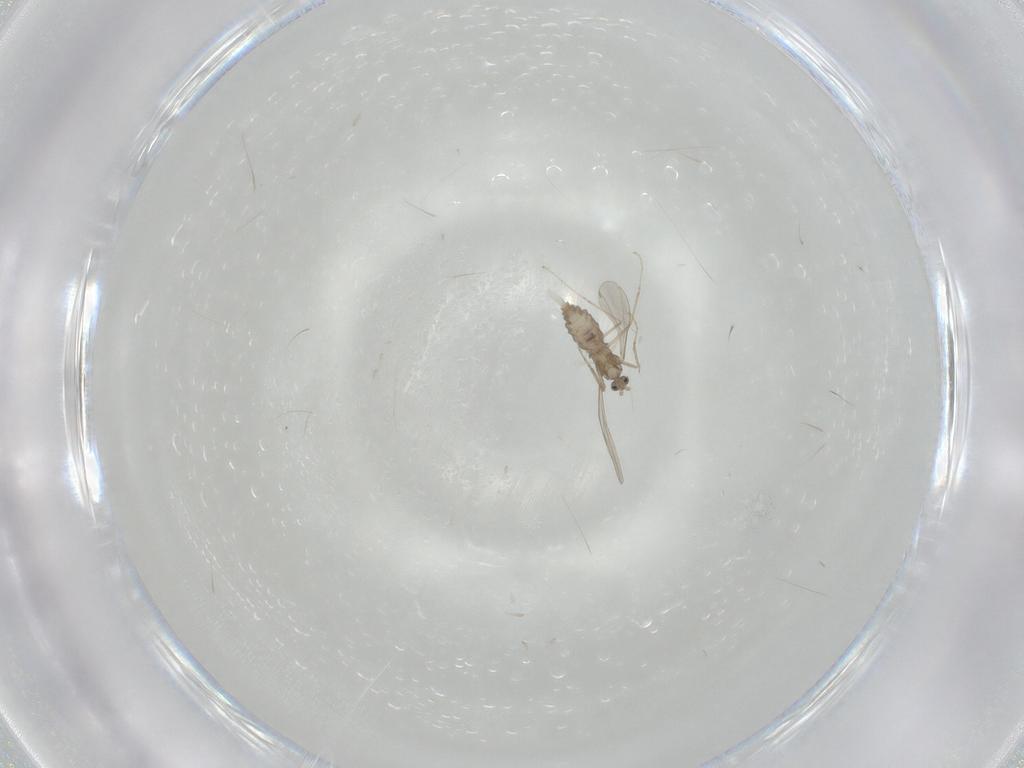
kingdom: Animalia
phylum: Arthropoda
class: Insecta
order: Diptera
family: Cecidomyiidae
